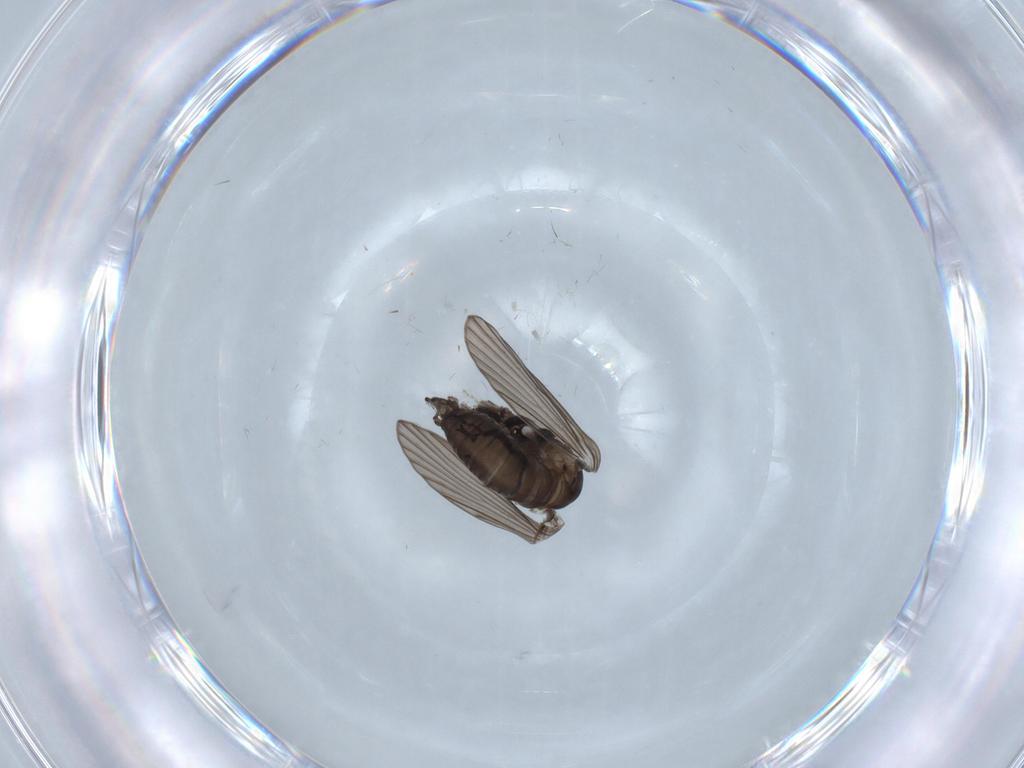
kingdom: Animalia
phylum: Arthropoda
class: Insecta
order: Diptera
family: Psychodidae
